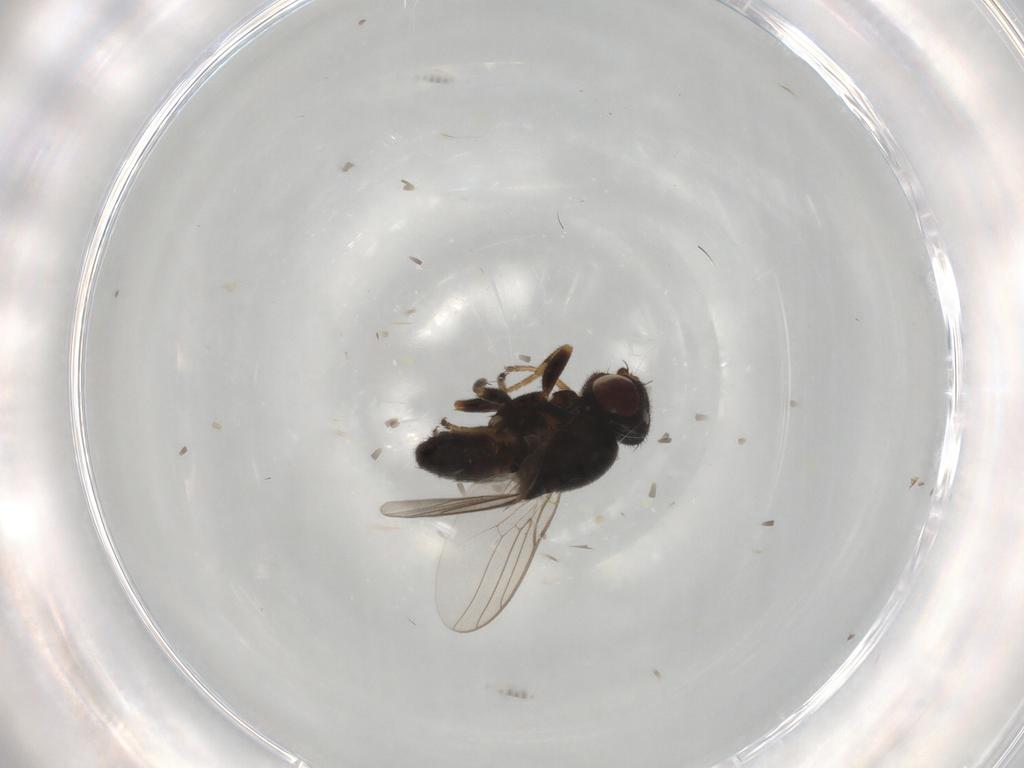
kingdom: Animalia
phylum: Arthropoda
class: Insecta
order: Diptera
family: Chloropidae
